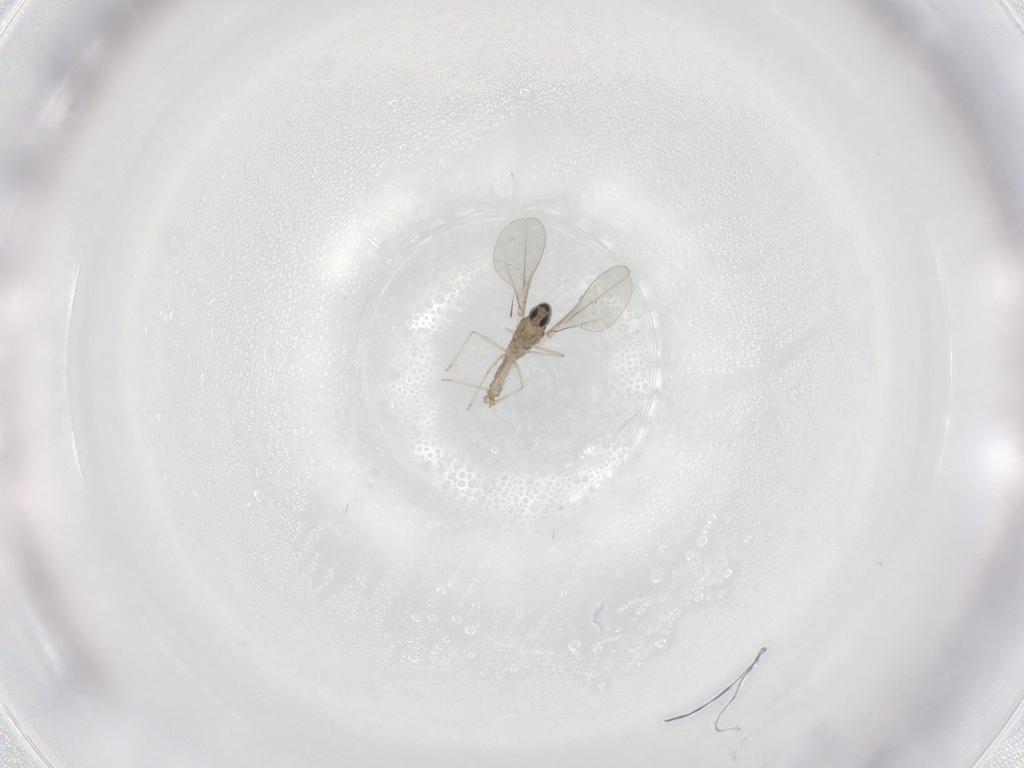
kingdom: Animalia
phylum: Arthropoda
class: Insecta
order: Diptera
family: Cecidomyiidae
